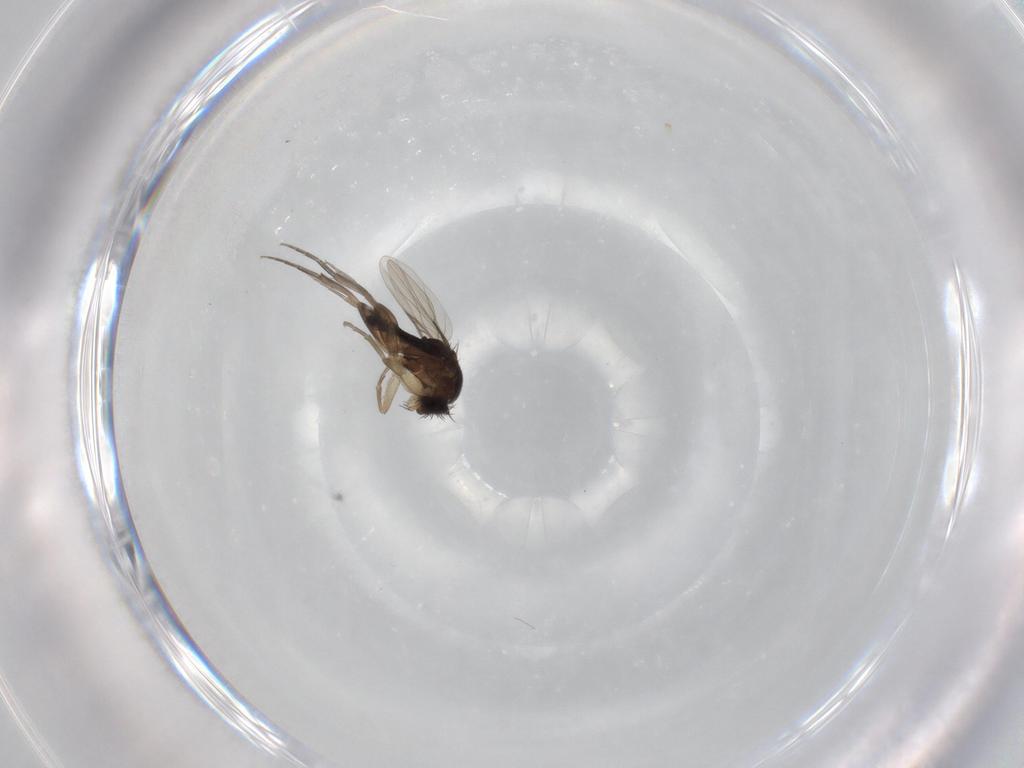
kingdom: Animalia
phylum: Arthropoda
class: Insecta
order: Diptera
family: Phoridae
